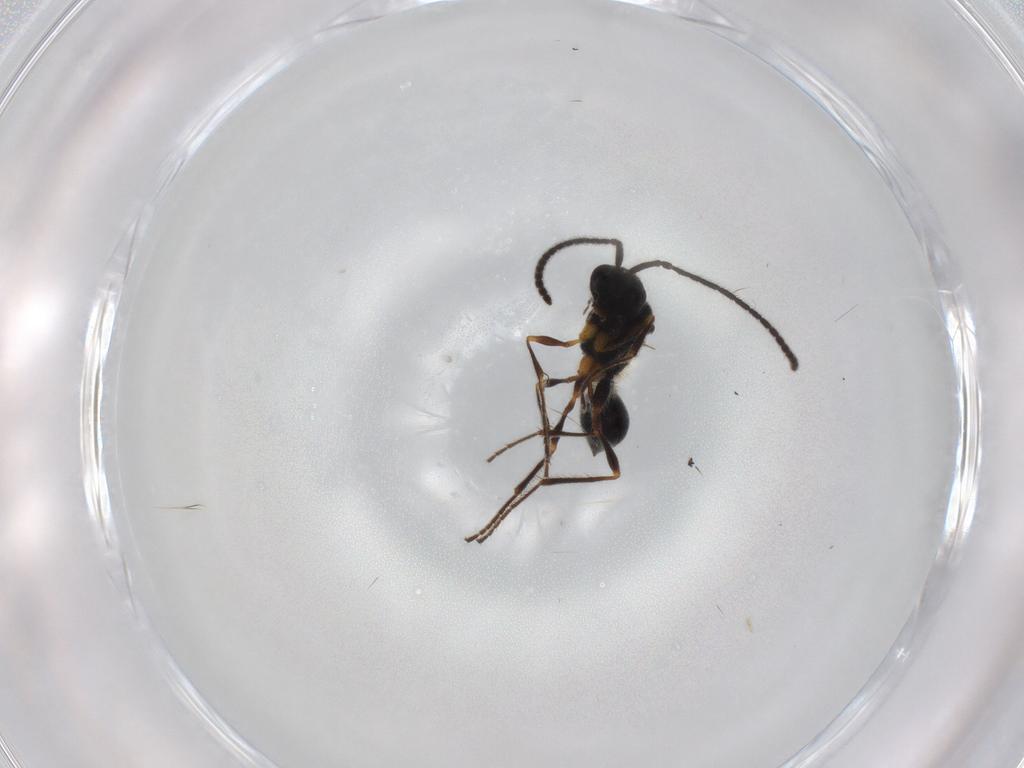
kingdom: Animalia
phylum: Arthropoda
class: Insecta
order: Hymenoptera
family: Diapriidae
